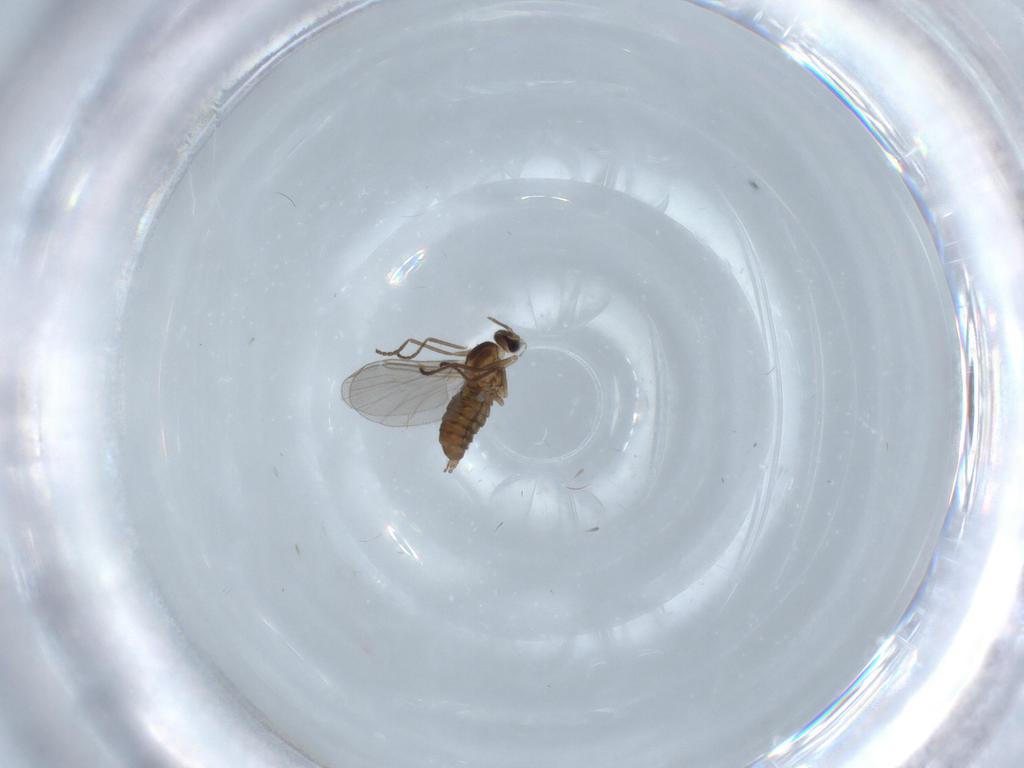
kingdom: Animalia
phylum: Arthropoda
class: Insecta
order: Diptera
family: Cecidomyiidae
